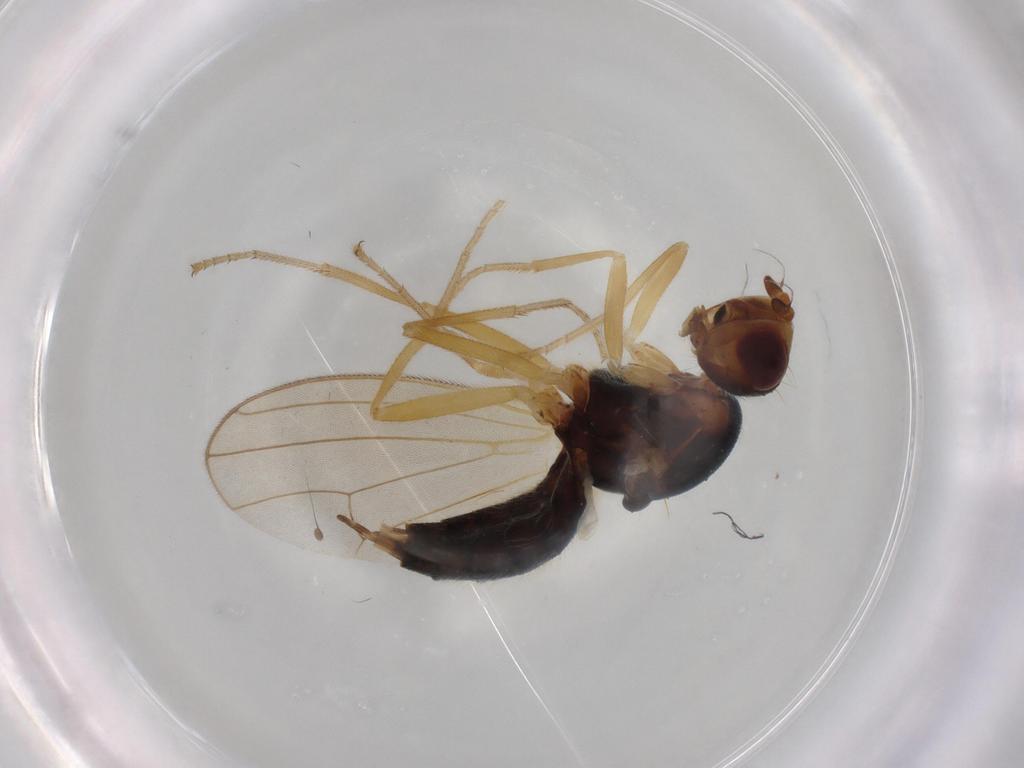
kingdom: Animalia
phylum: Arthropoda
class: Insecta
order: Diptera
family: Hybotidae
